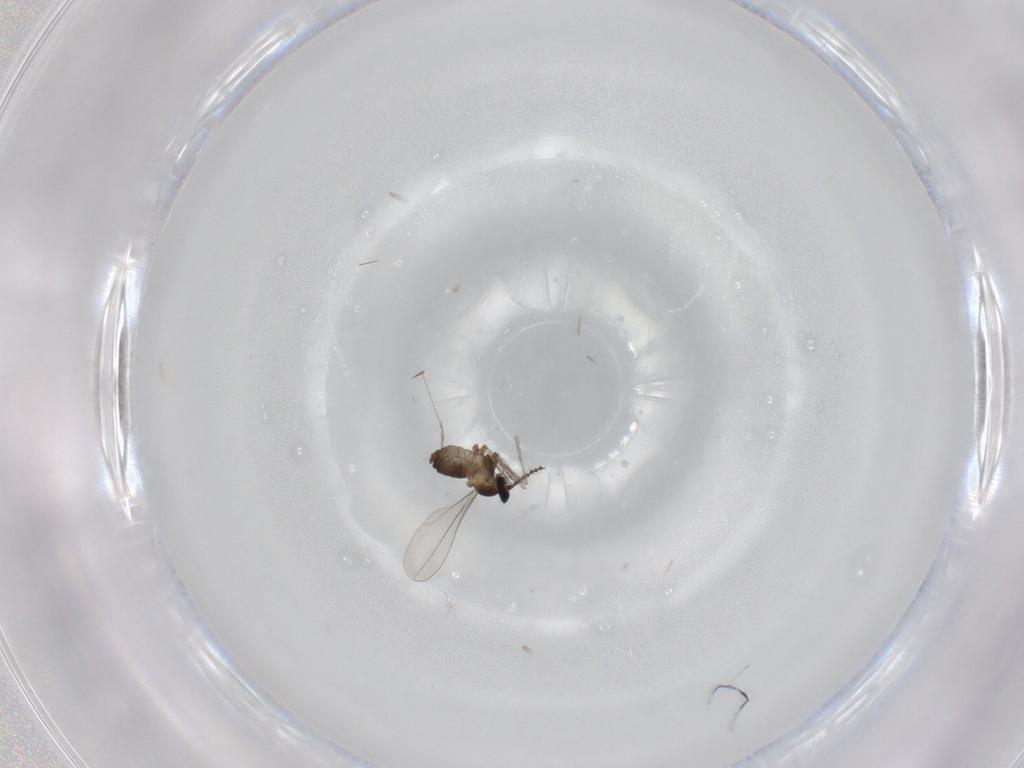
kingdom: Animalia
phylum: Arthropoda
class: Insecta
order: Diptera
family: Cecidomyiidae
